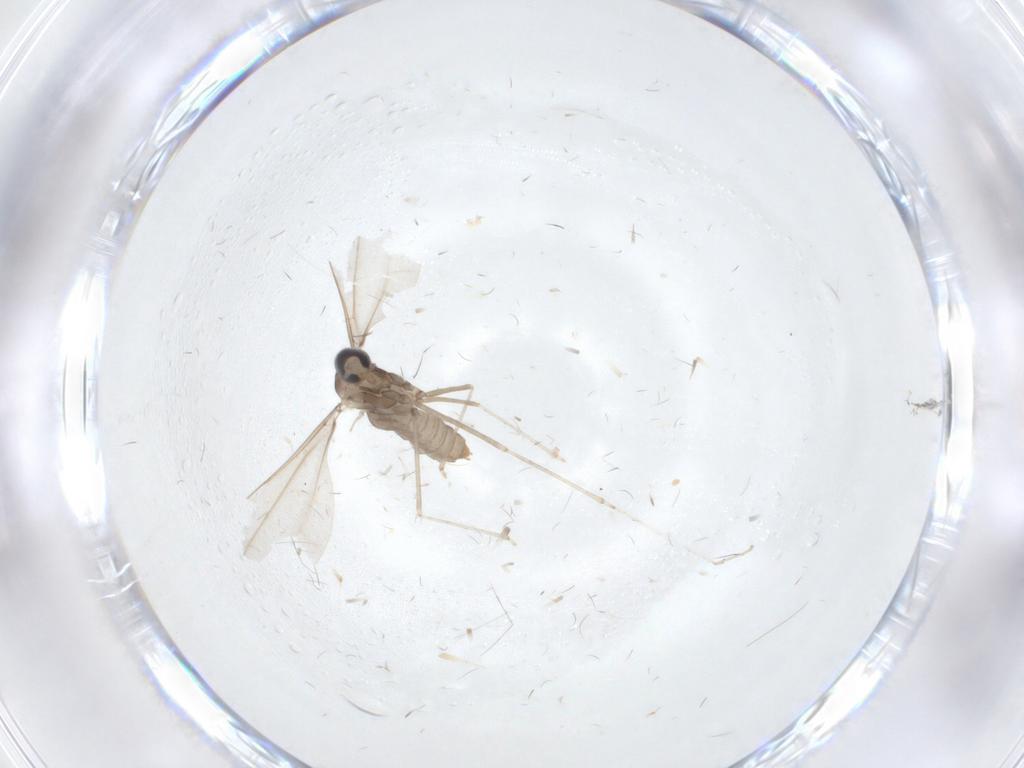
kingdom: Animalia
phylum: Arthropoda
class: Insecta
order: Diptera
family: Cecidomyiidae
